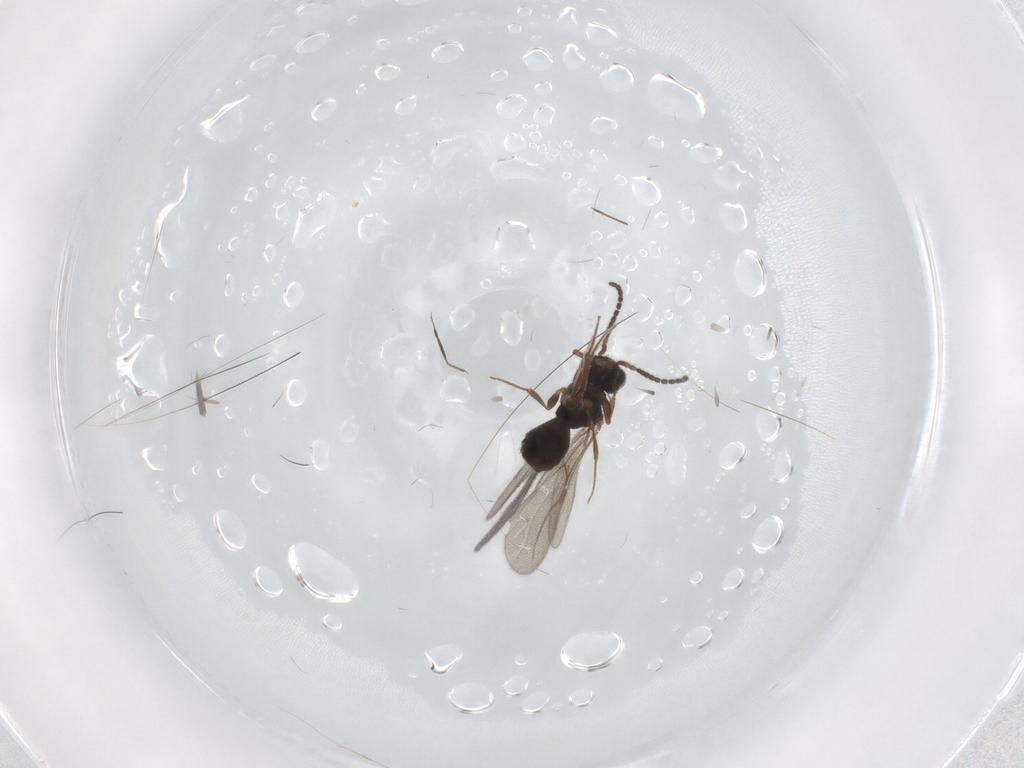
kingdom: Animalia
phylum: Arthropoda
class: Insecta
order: Hymenoptera
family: Bethylidae
